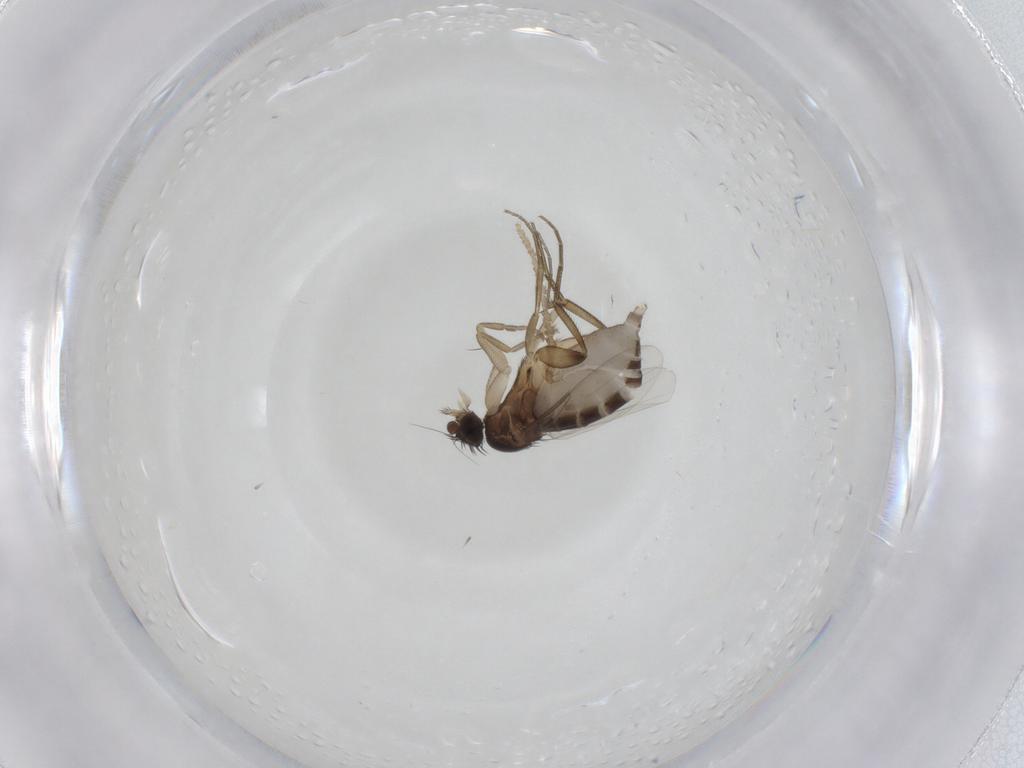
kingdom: Animalia
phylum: Arthropoda
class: Insecta
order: Diptera
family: Phoridae
